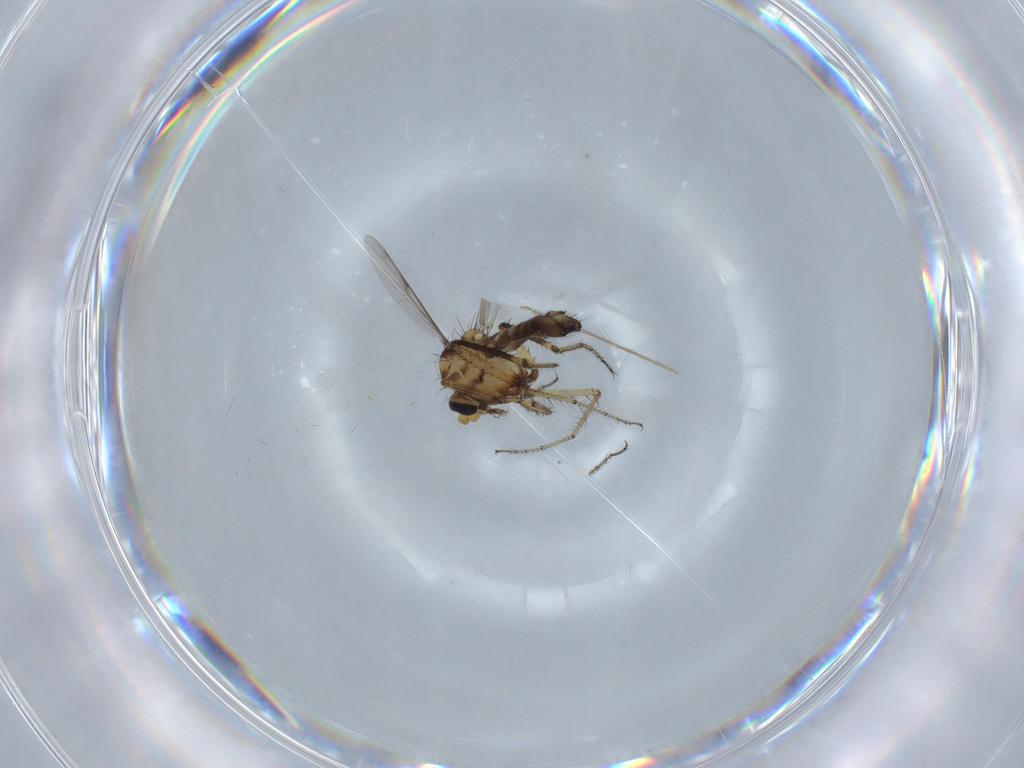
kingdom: Animalia
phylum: Arthropoda
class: Insecta
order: Diptera
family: Ceratopogonidae
